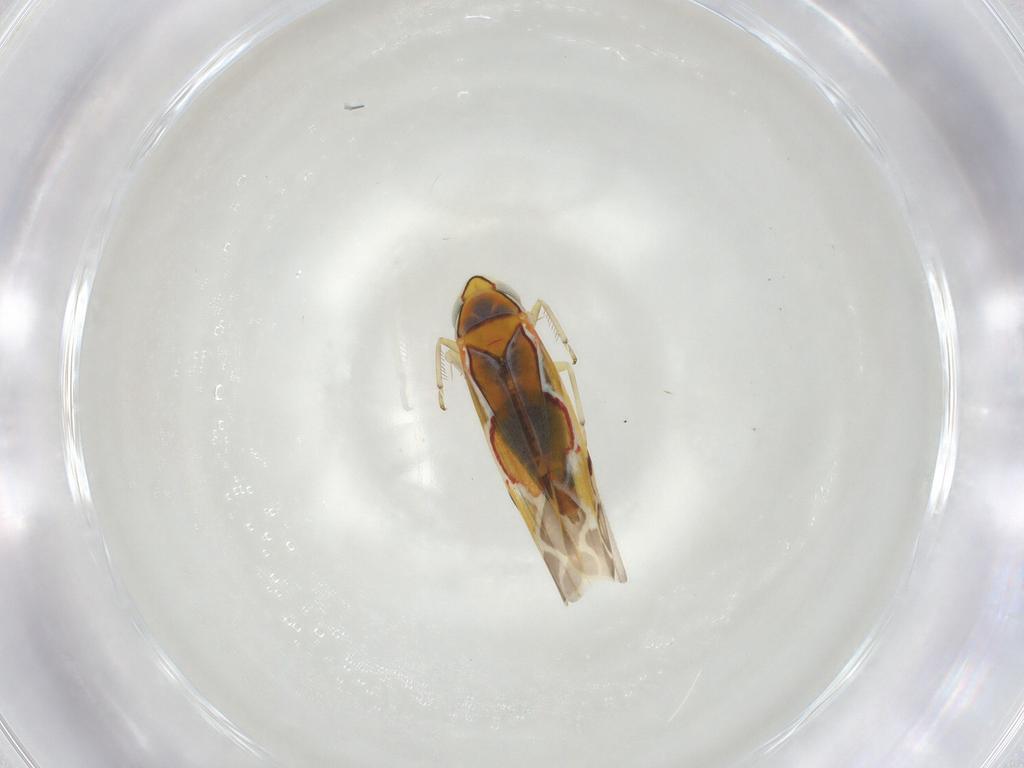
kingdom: Animalia
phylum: Arthropoda
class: Insecta
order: Hemiptera
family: Cicadellidae
